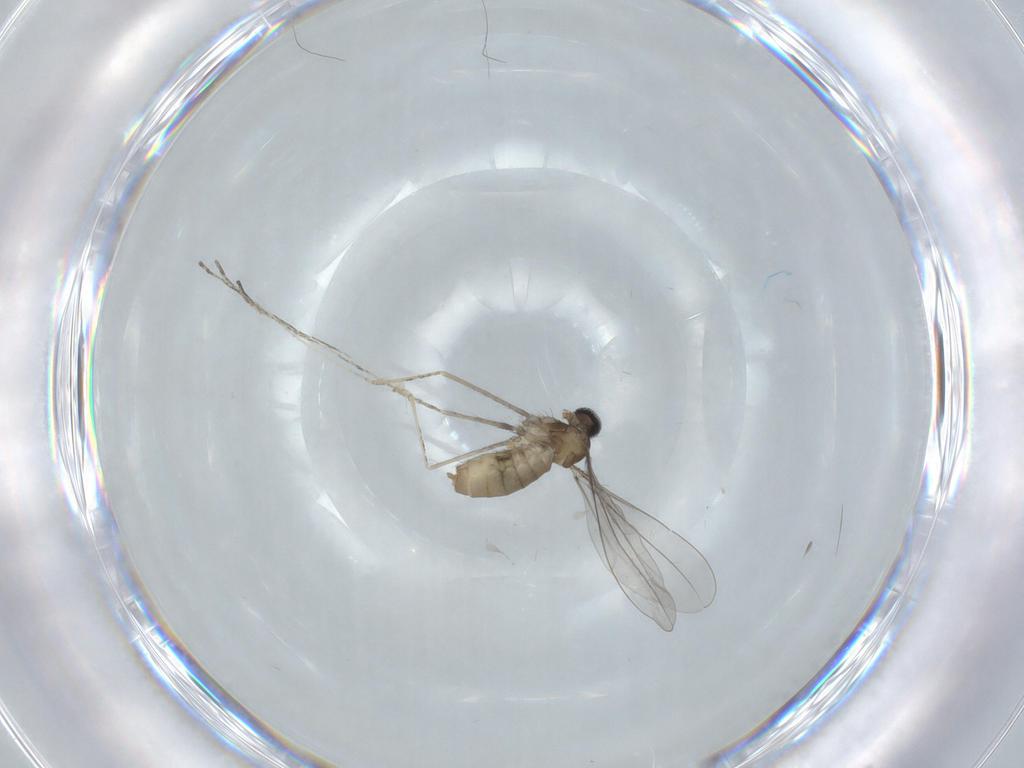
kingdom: Animalia
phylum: Arthropoda
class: Insecta
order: Diptera
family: Cecidomyiidae
